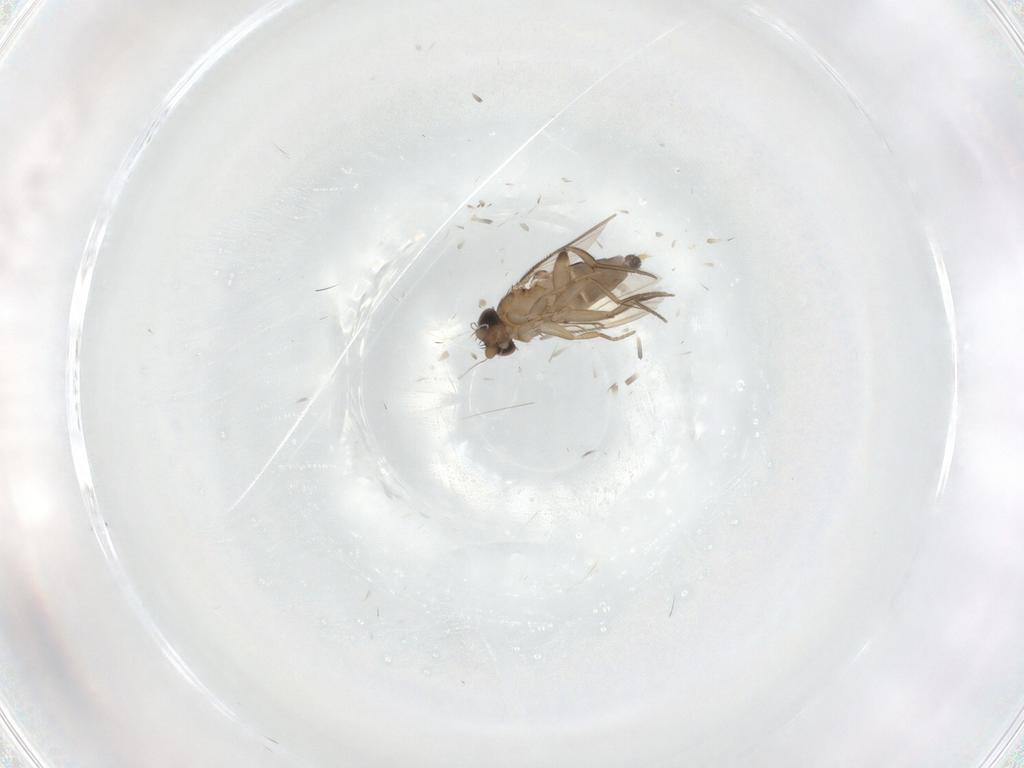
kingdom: Animalia
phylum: Arthropoda
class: Insecta
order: Diptera
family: Phoridae
